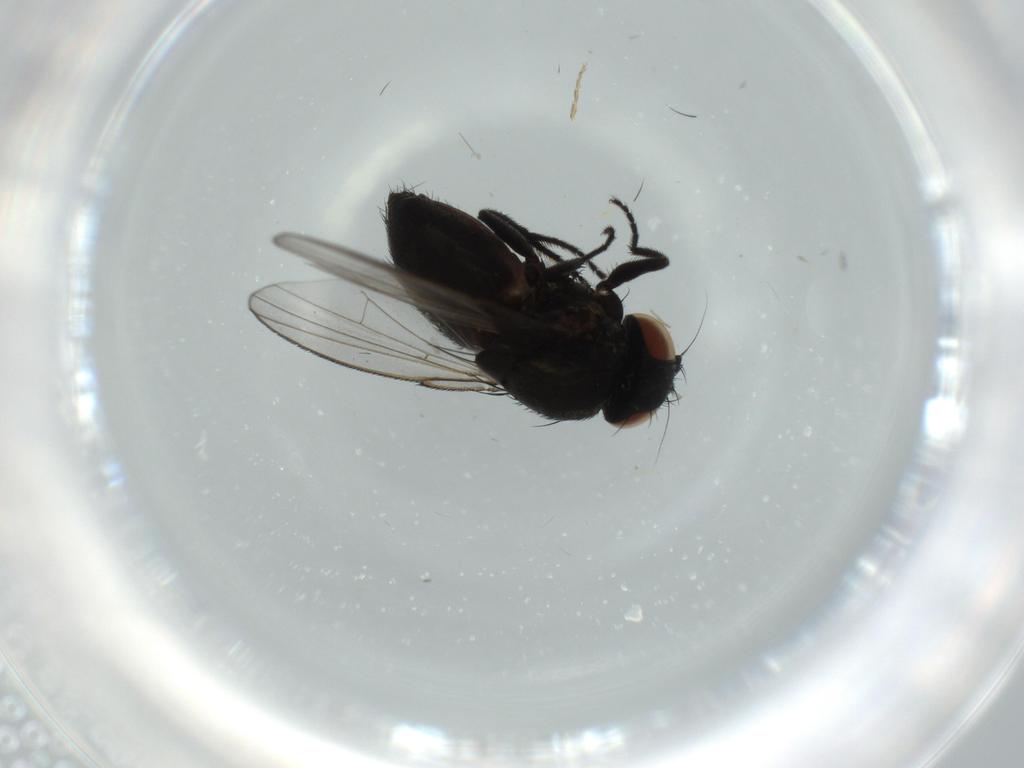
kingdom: Animalia
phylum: Arthropoda
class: Insecta
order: Diptera
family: Milichiidae
